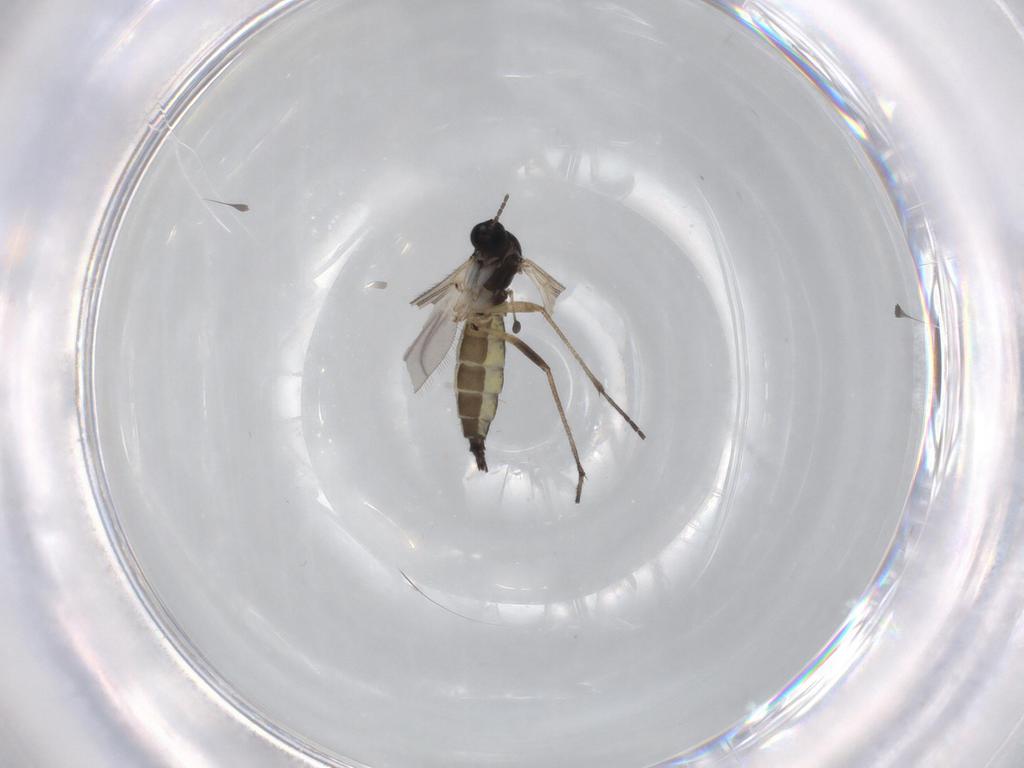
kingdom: Animalia
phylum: Arthropoda
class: Insecta
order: Diptera
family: Sciaridae
